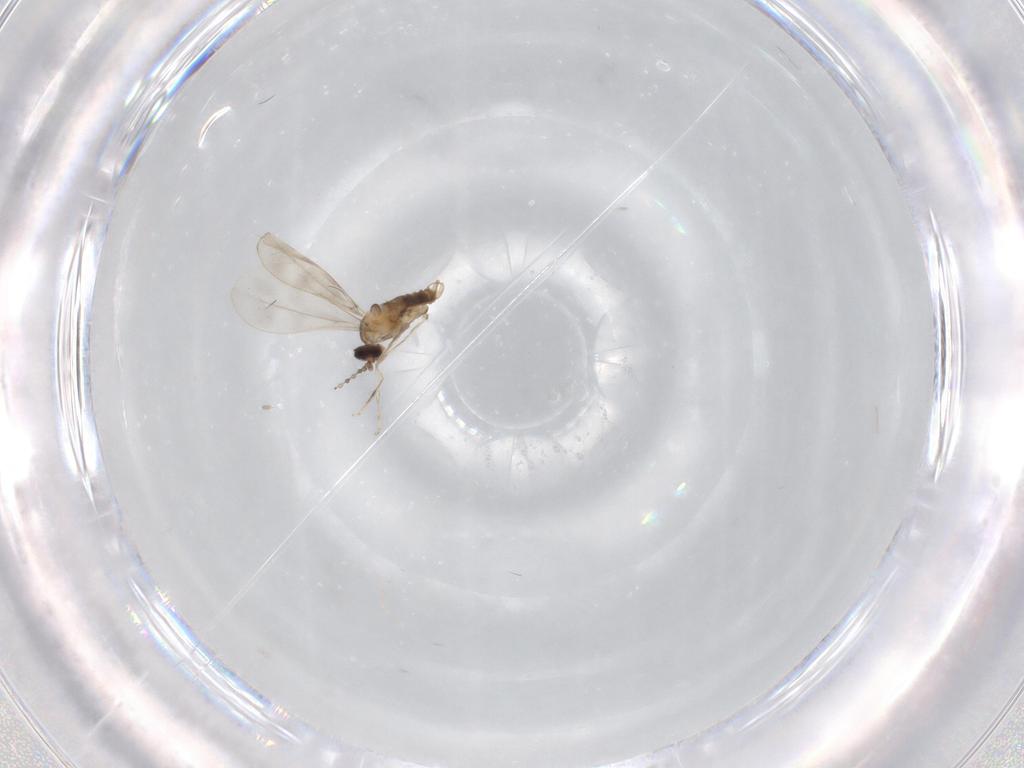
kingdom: Animalia
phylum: Arthropoda
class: Insecta
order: Diptera
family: Cecidomyiidae
